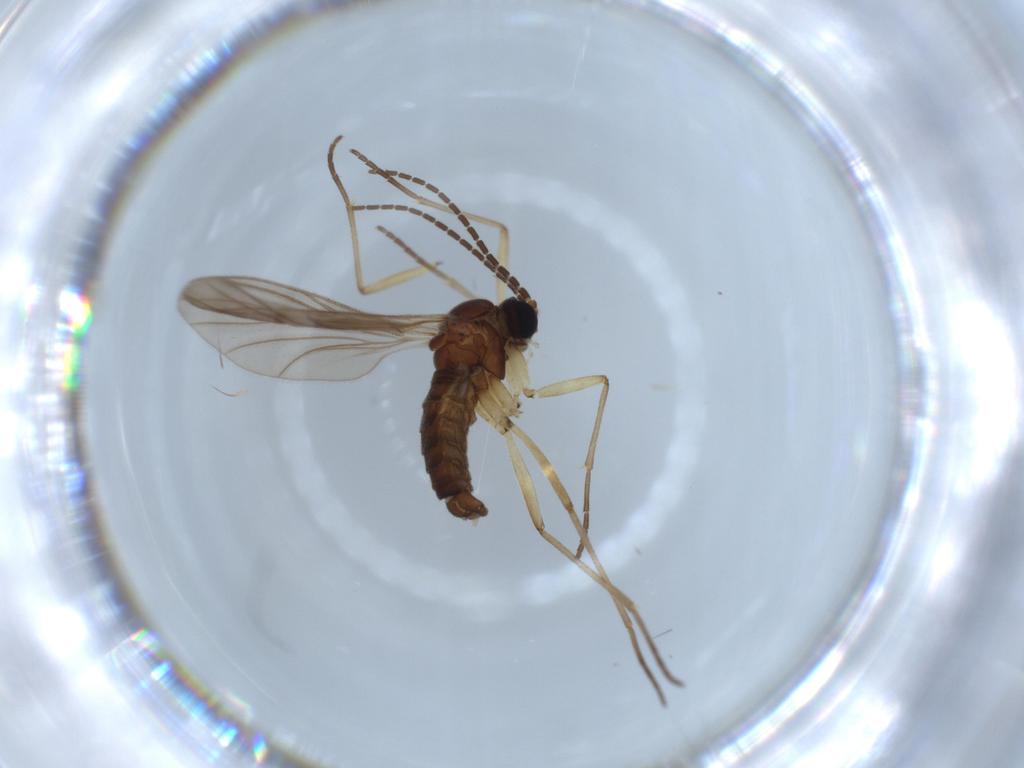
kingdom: Animalia
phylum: Arthropoda
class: Insecta
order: Diptera
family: Sciaridae
